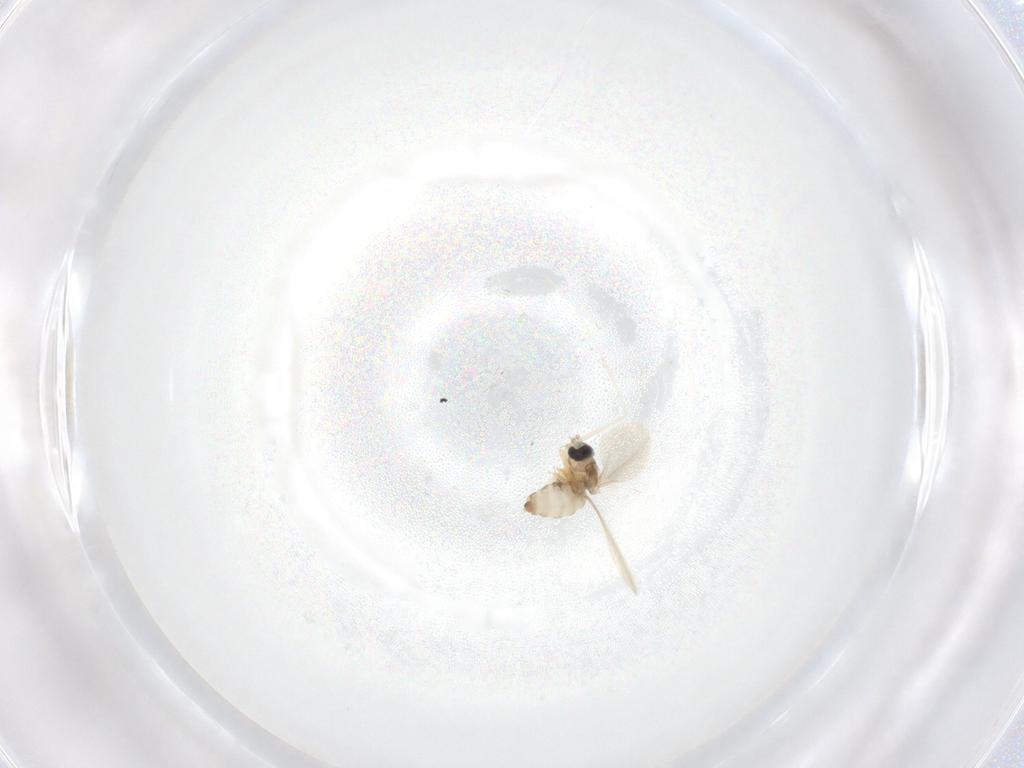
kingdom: Animalia
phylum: Arthropoda
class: Insecta
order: Diptera
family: Cecidomyiidae
